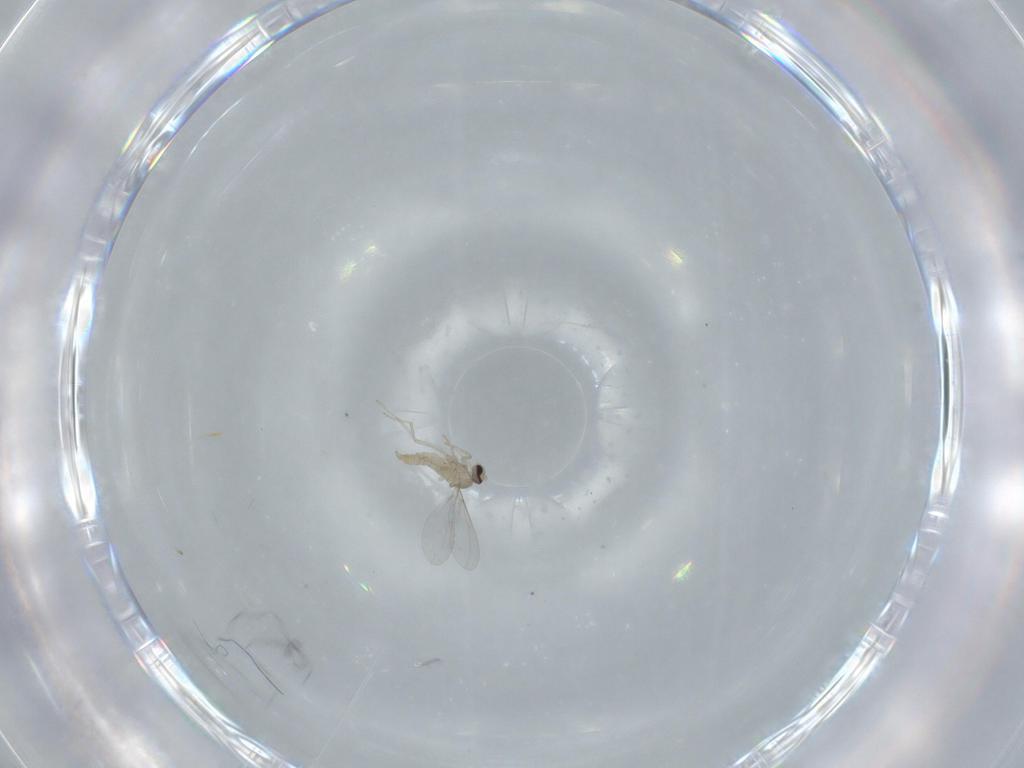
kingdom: Animalia
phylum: Arthropoda
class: Insecta
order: Diptera
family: Cecidomyiidae
